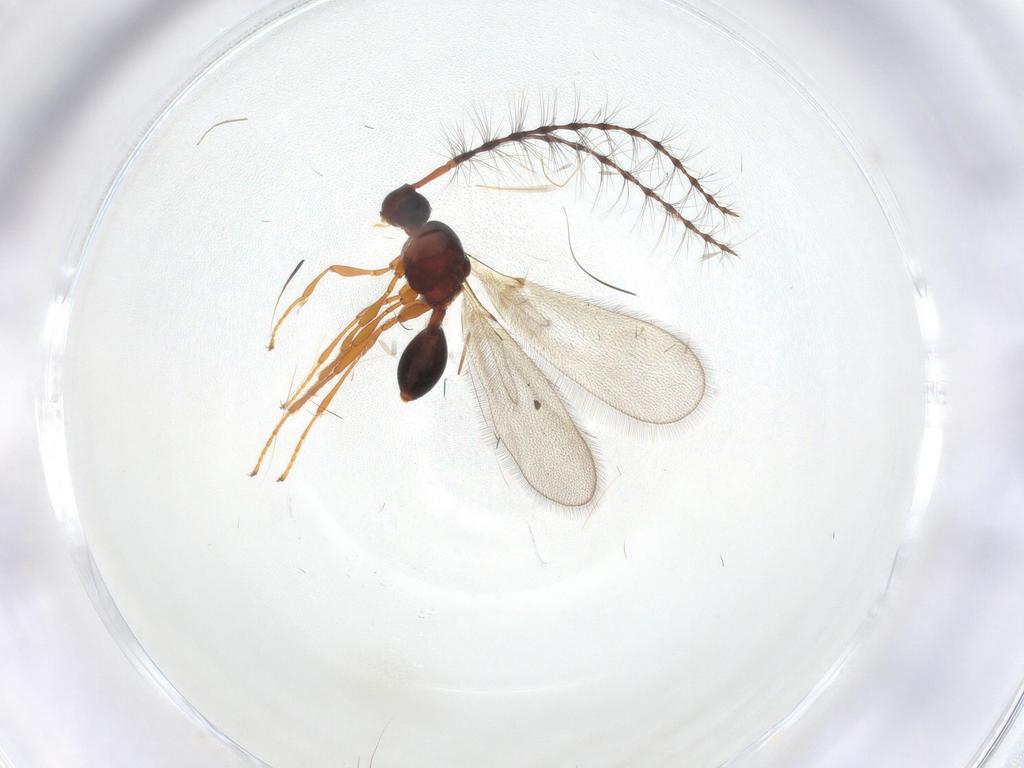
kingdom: Animalia
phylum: Arthropoda
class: Insecta
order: Hymenoptera
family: Diapriidae
